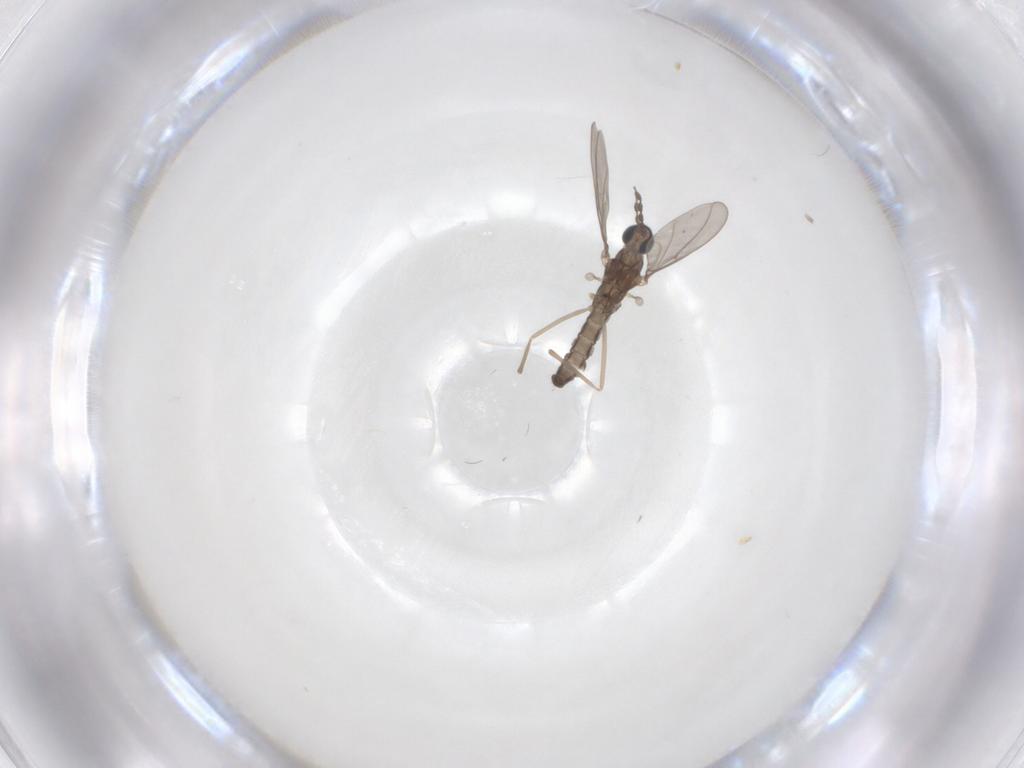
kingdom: Animalia
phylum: Arthropoda
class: Insecta
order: Diptera
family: Cecidomyiidae
